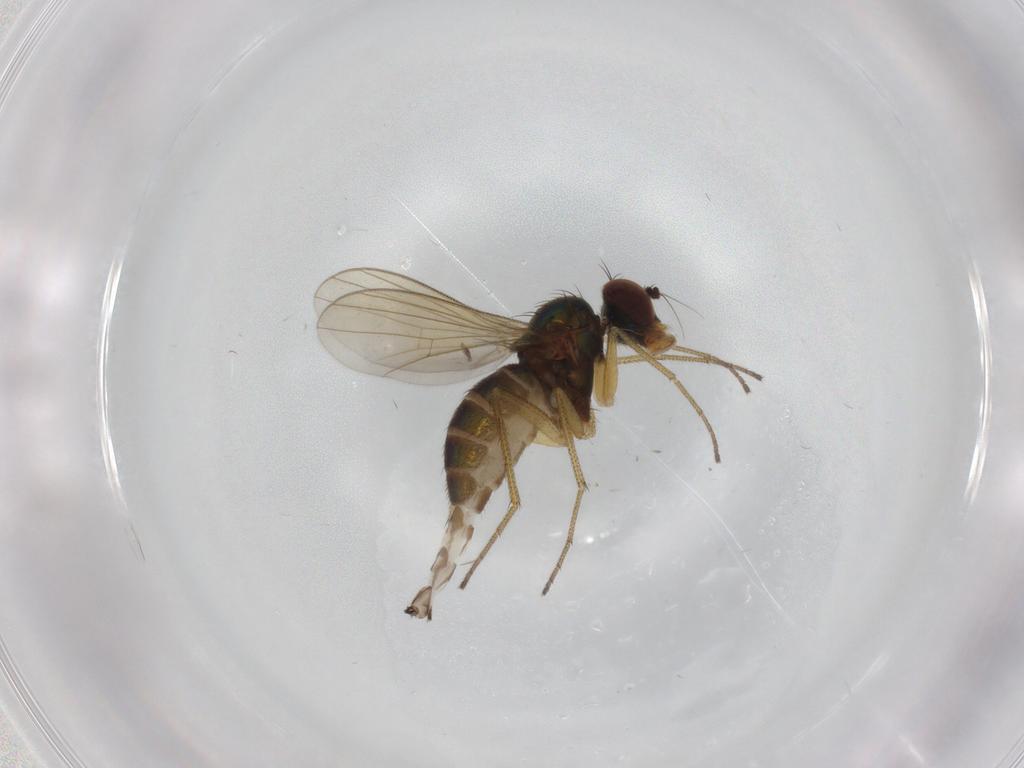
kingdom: Animalia
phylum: Arthropoda
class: Insecta
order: Diptera
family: Dolichopodidae
